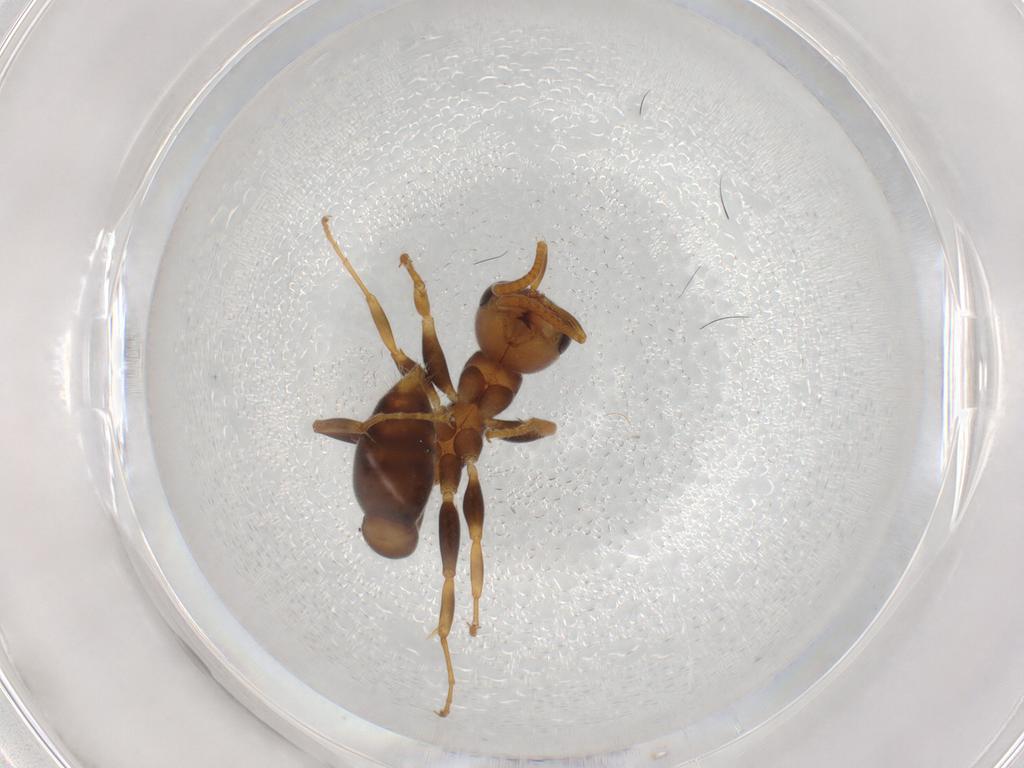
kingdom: Animalia
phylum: Arthropoda
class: Insecta
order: Hymenoptera
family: Formicidae
